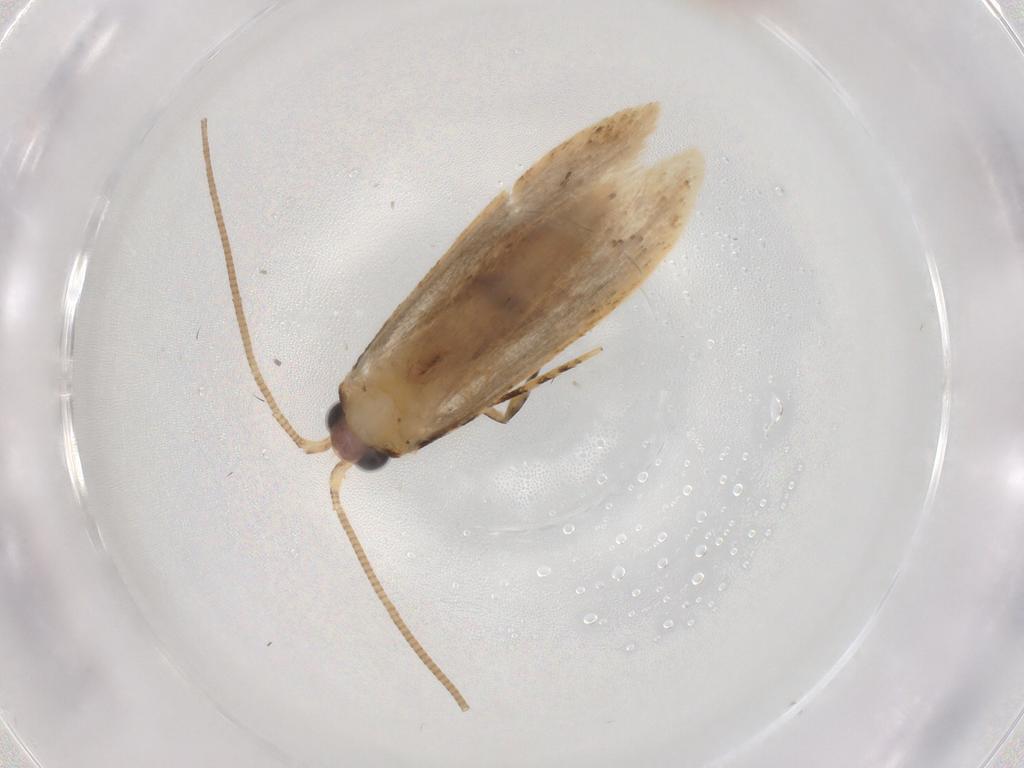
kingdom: Animalia
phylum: Arthropoda
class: Insecta
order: Lepidoptera
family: Nepticulidae
